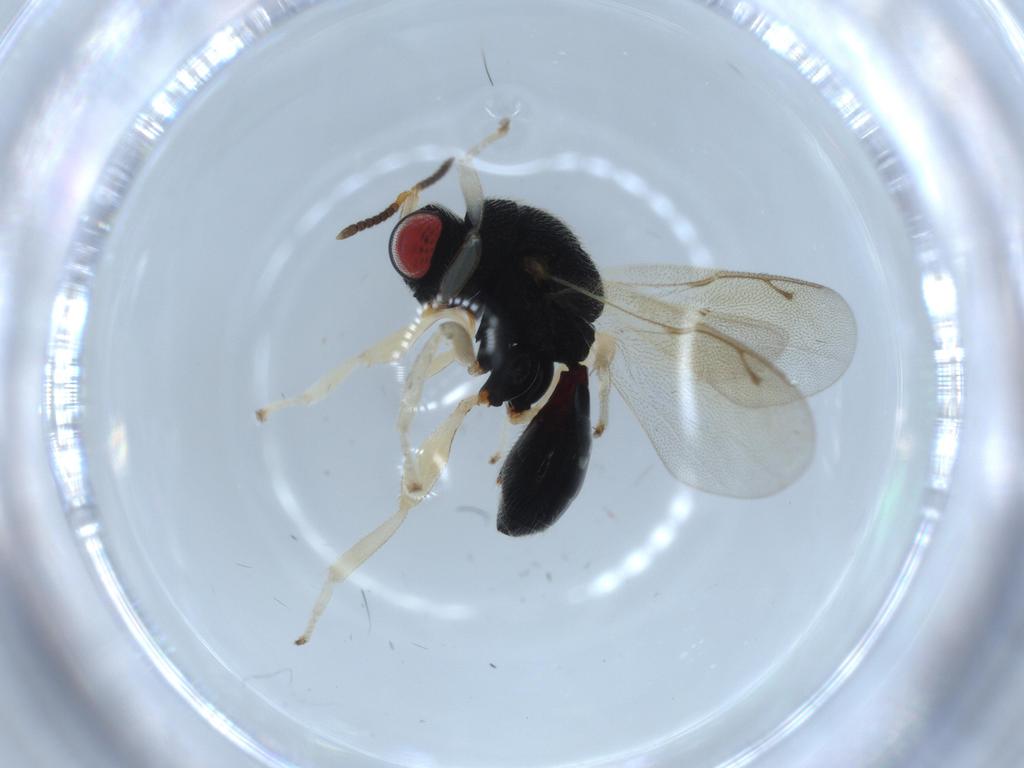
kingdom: Animalia
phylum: Arthropoda
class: Insecta
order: Hymenoptera
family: Eurytomidae
